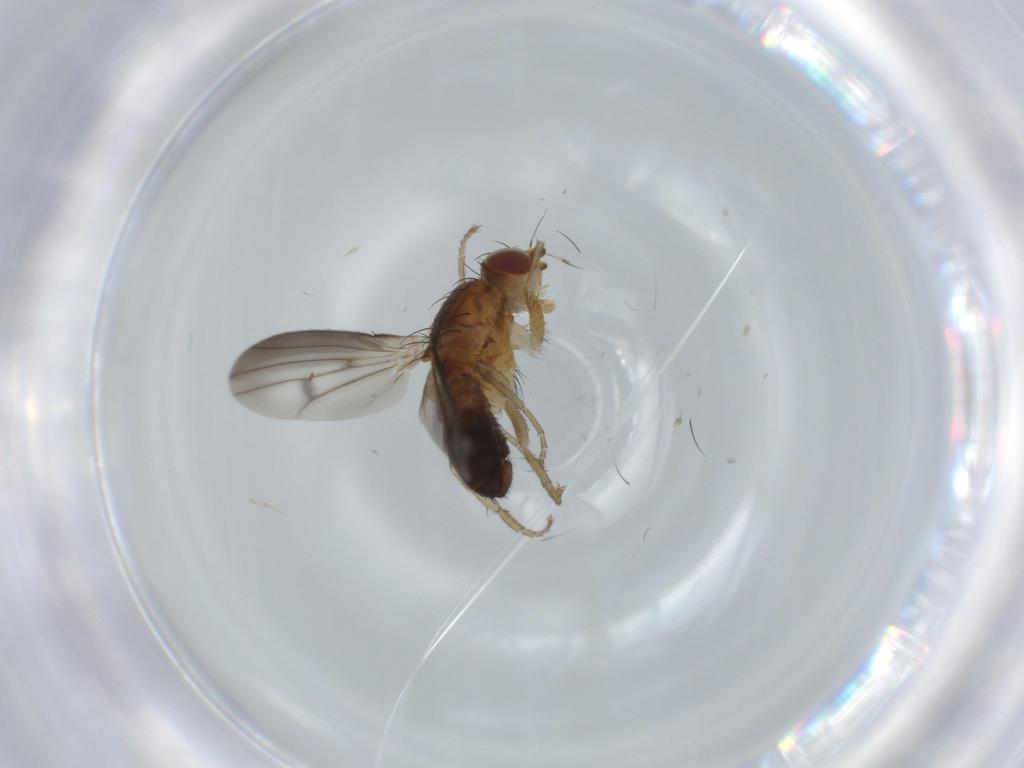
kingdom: Animalia
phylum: Arthropoda
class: Insecta
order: Diptera
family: Heleomyzidae
